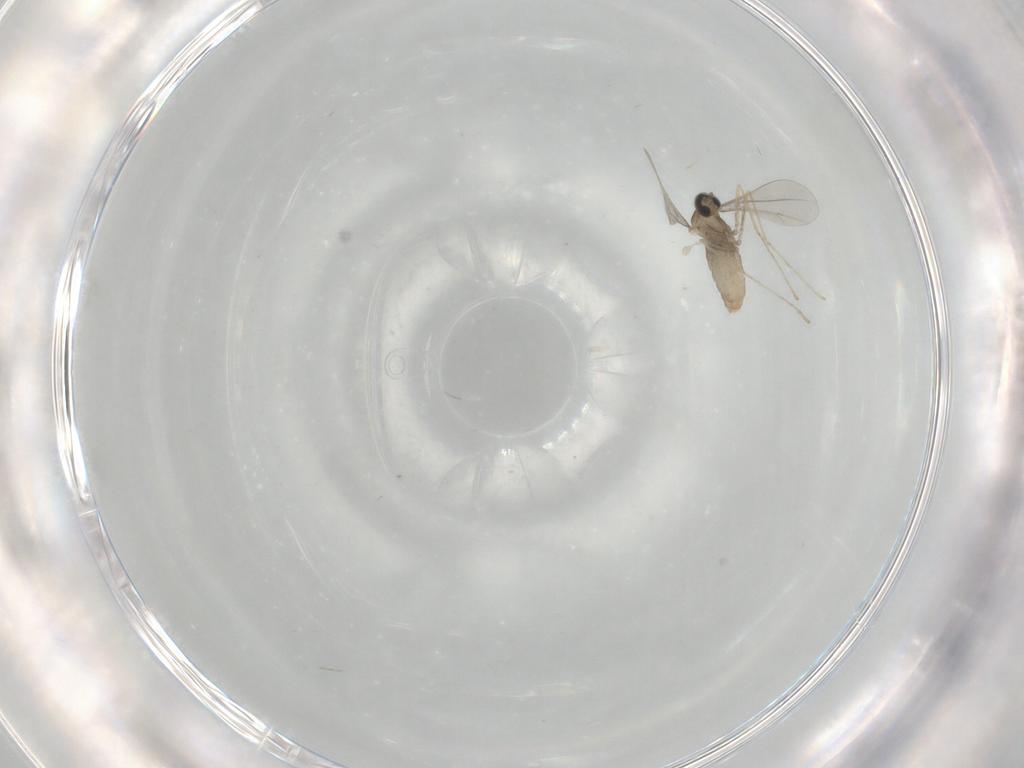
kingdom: Animalia
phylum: Arthropoda
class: Insecta
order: Diptera
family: Cecidomyiidae
